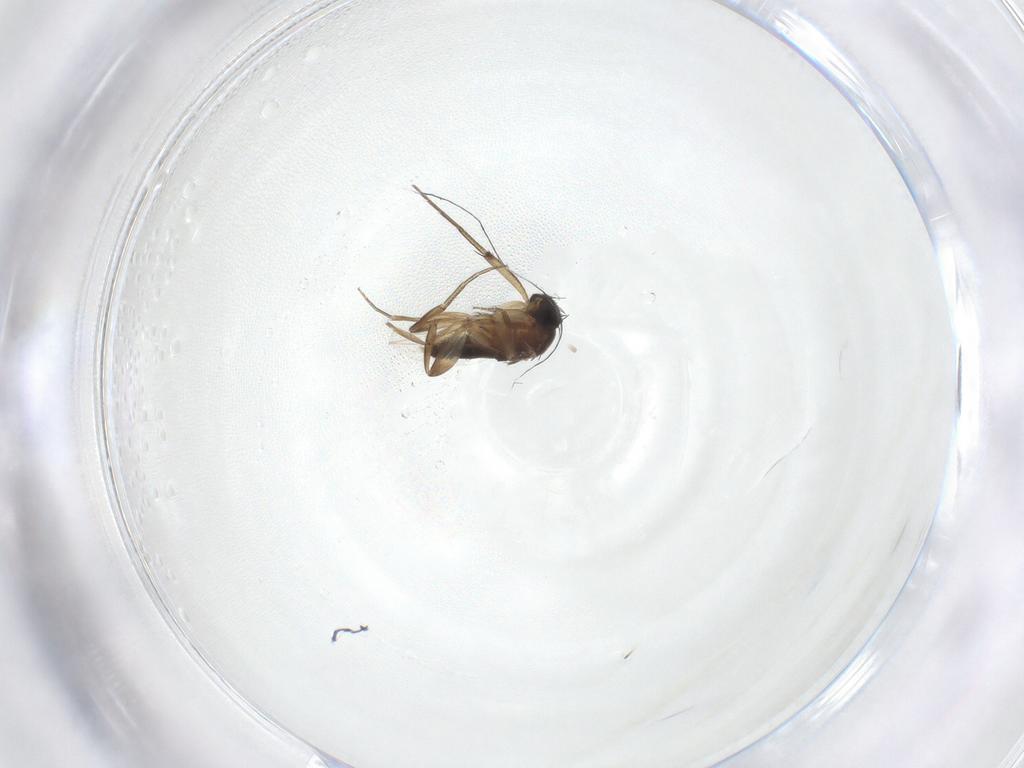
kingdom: Animalia
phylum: Arthropoda
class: Insecta
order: Diptera
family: Phoridae
